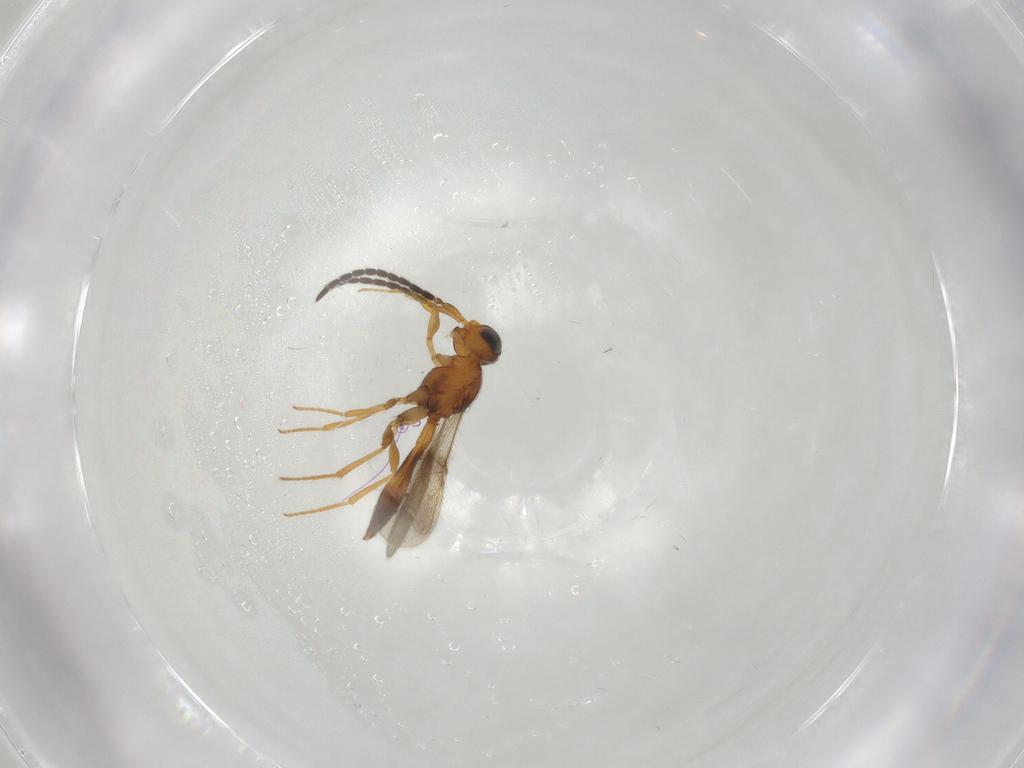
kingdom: Animalia
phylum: Arthropoda
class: Insecta
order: Hymenoptera
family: Scelionidae
